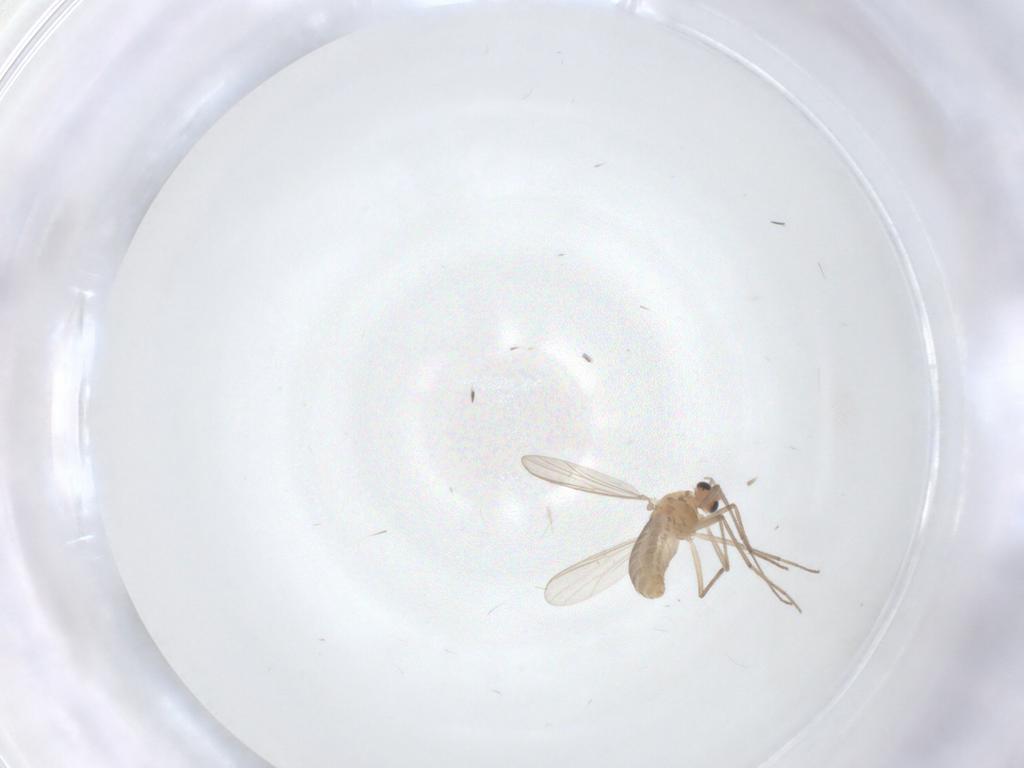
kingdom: Animalia
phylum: Arthropoda
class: Insecta
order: Diptera
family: Chironomidae
